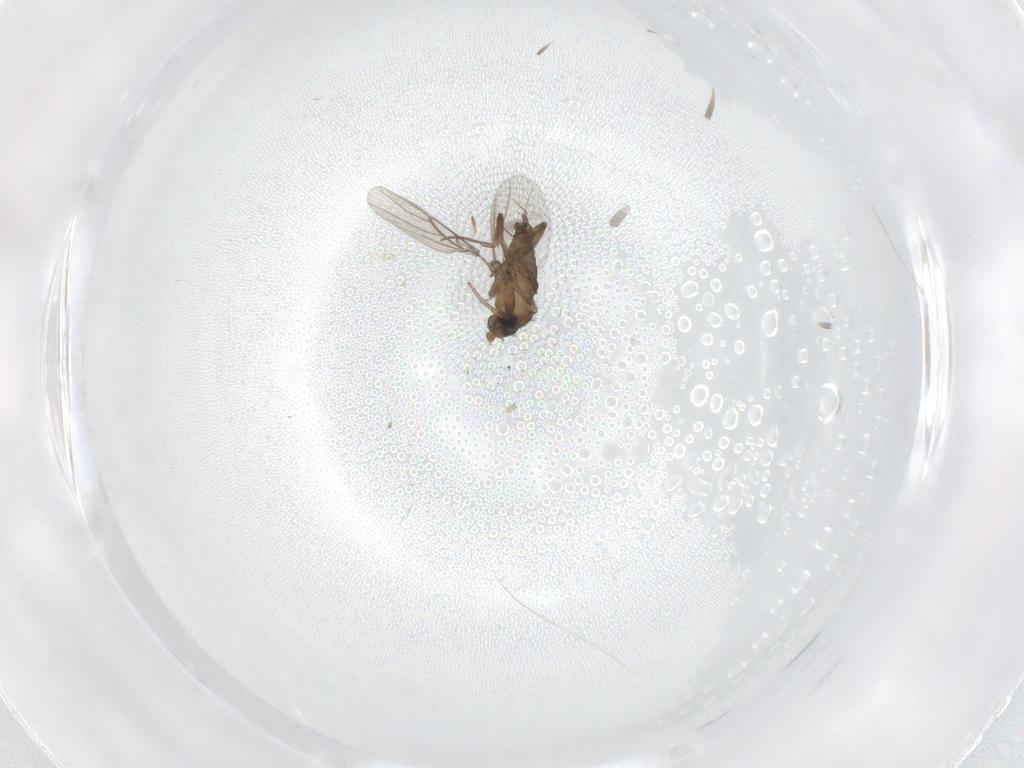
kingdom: Animalia
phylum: Arthropoda
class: Insecta
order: Diptera
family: Phoridae
